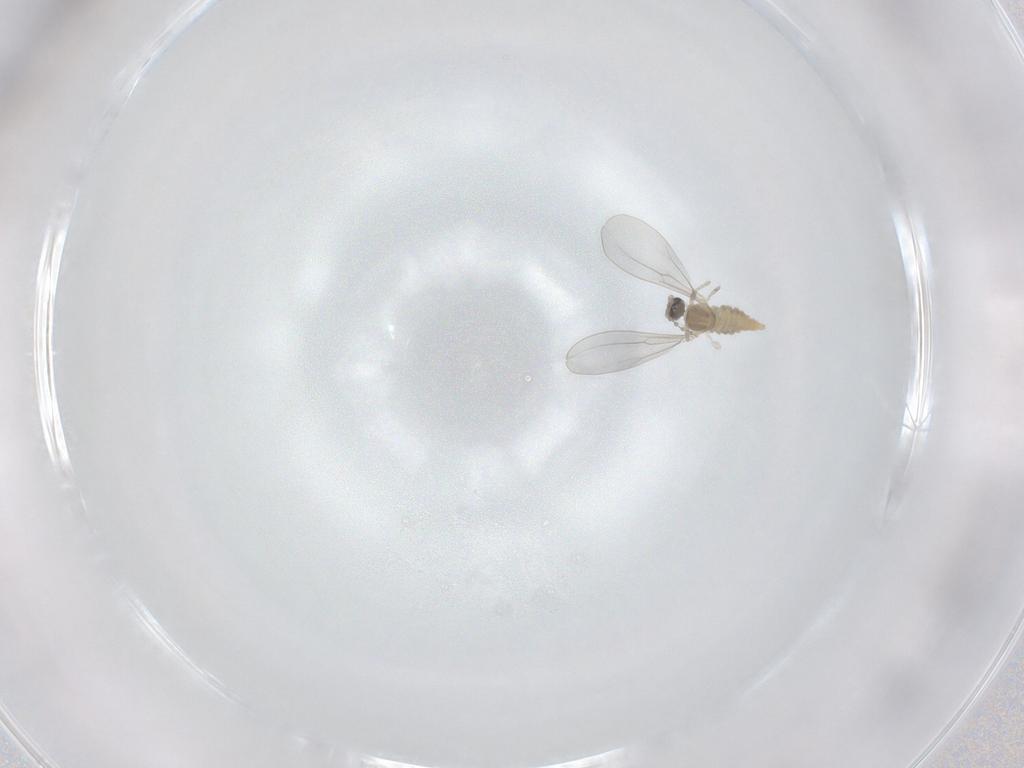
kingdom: Animalia
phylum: Arthropoda
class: Insecta
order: Diptera
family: Cecidomyiidae
